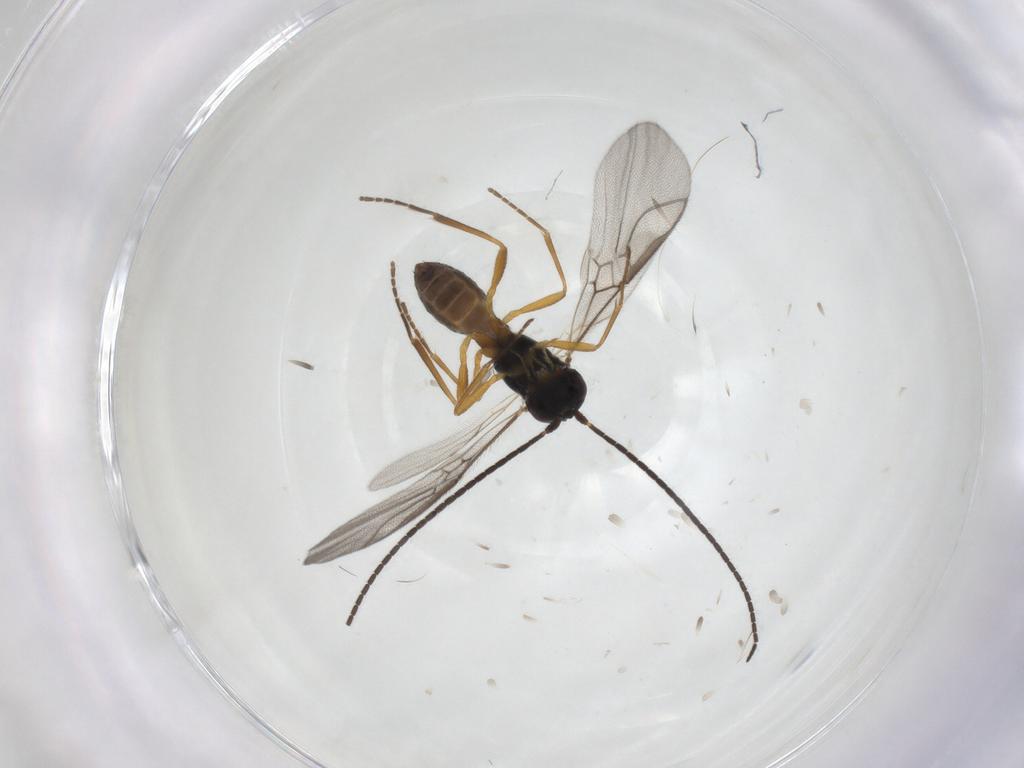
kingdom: Animalia
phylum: Arthropoda
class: Insecta
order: Hymenoptera
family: Braconidae
